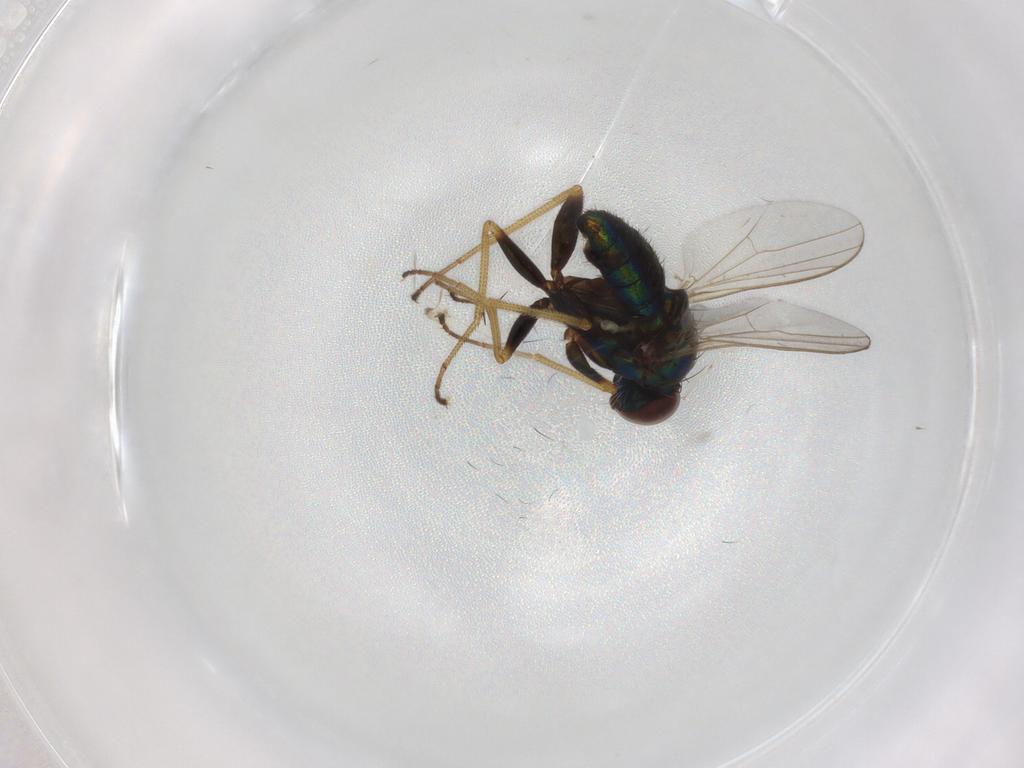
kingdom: Animalia
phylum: Arthropoda
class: Insecta
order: Diptera
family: Dolichopodidae
